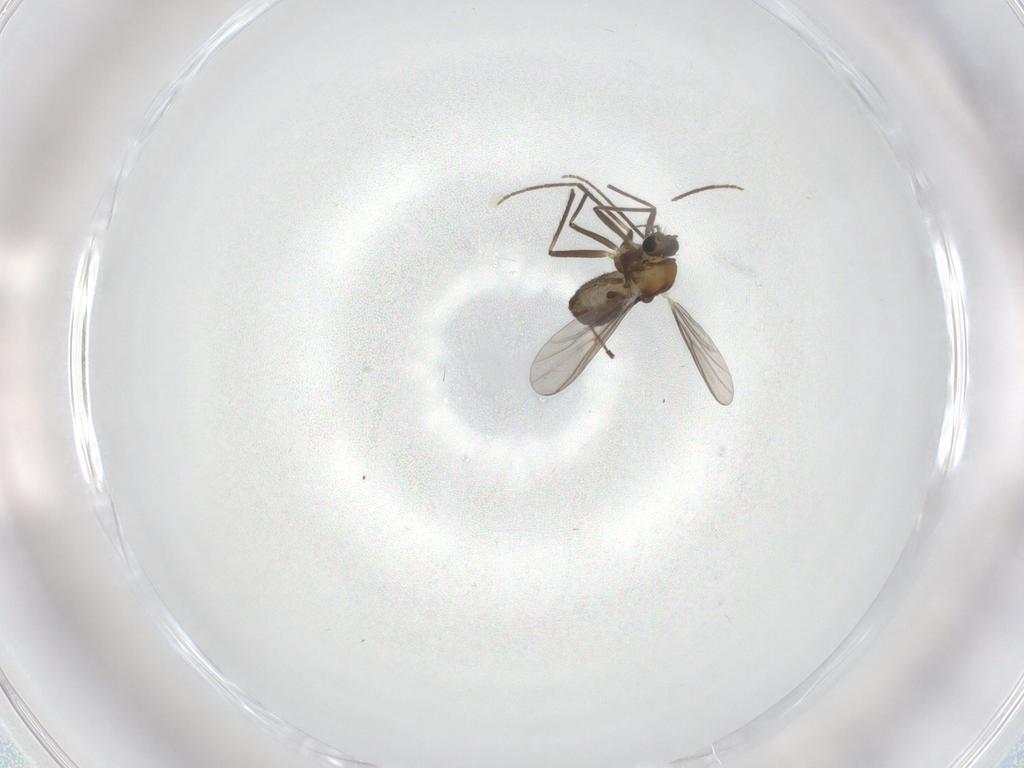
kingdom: Animalia
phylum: Arthropoda
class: Insecta
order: Diptera
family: Chironomidae
